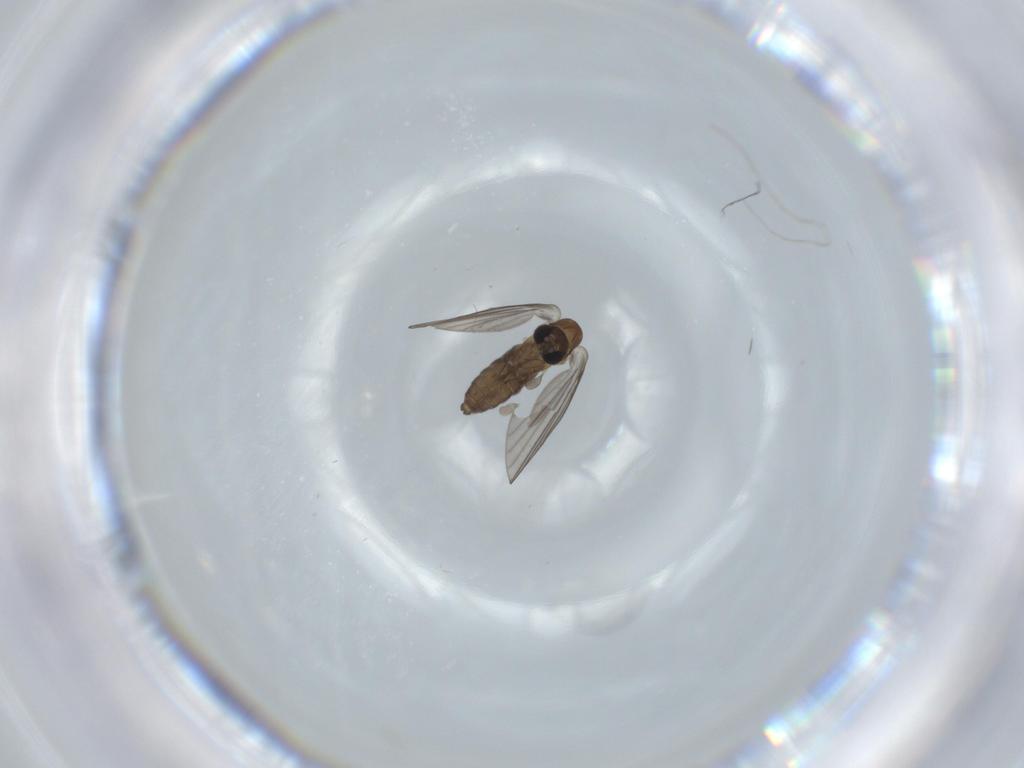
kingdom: Animalia
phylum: Arthropoda
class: Insecta
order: Diptera
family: Psychodidae
